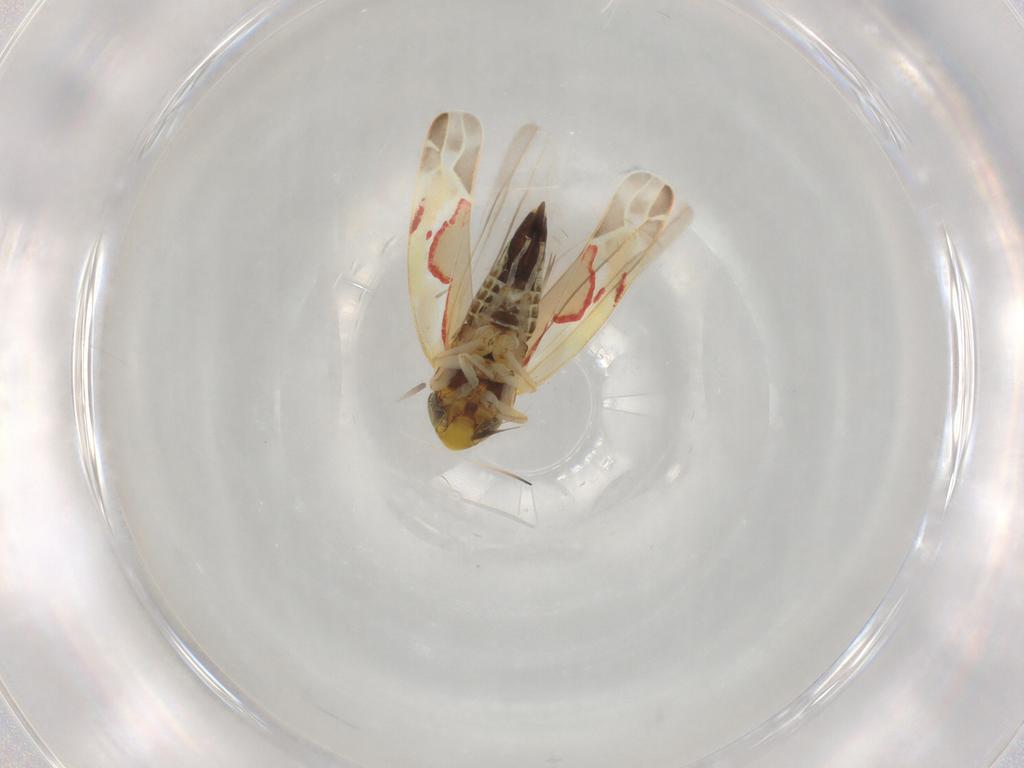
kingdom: Animalia
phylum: Arthropoda
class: Insecta
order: Hemiptera
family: Cicadellidae
